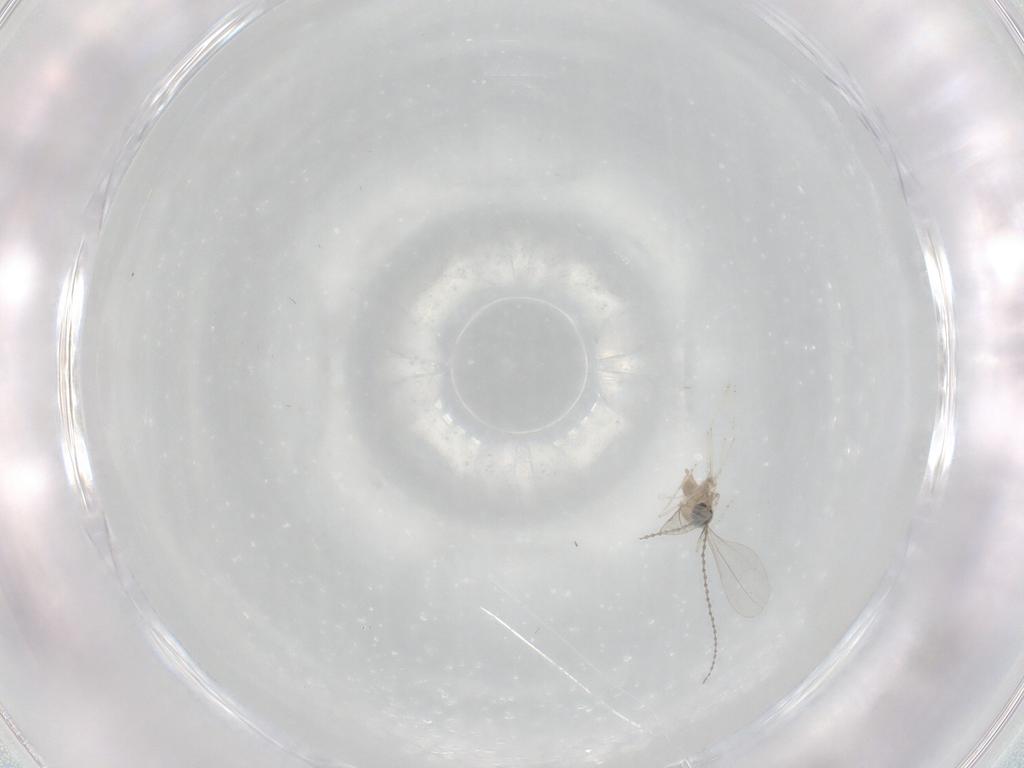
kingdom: Animalia
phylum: Arthropoda
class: Insecta
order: Diptera
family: Cecidomyiidae
